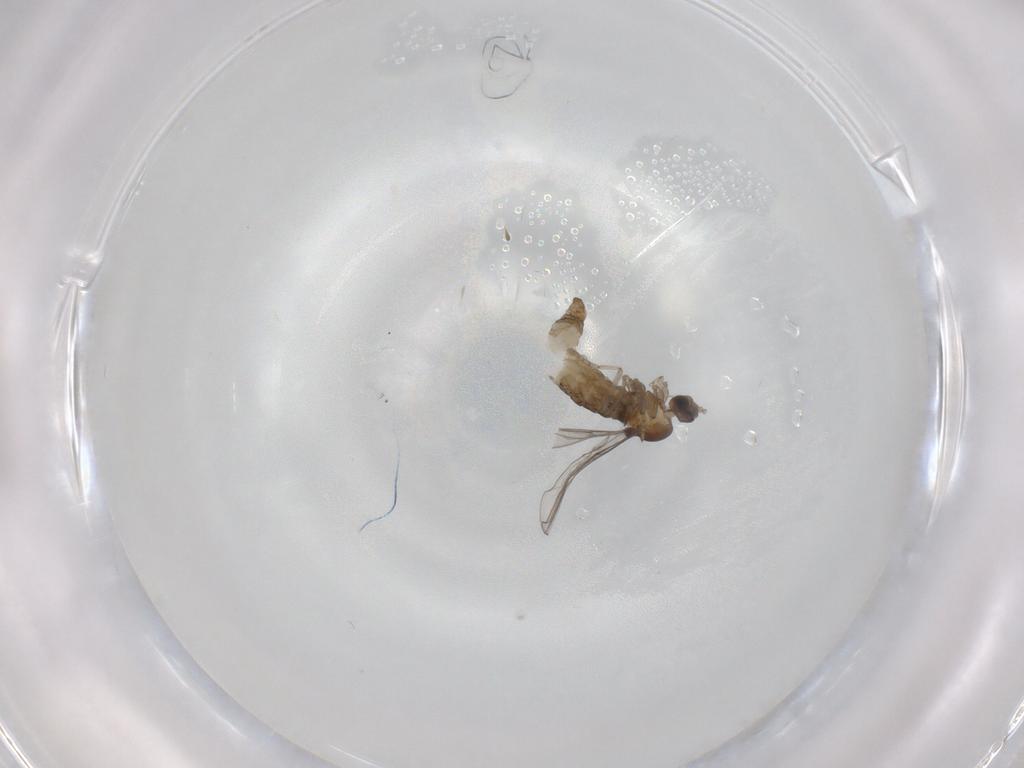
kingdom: Animalia
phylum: Arthropoda
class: Insecta
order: Diptera
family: Cecidomyiidae
